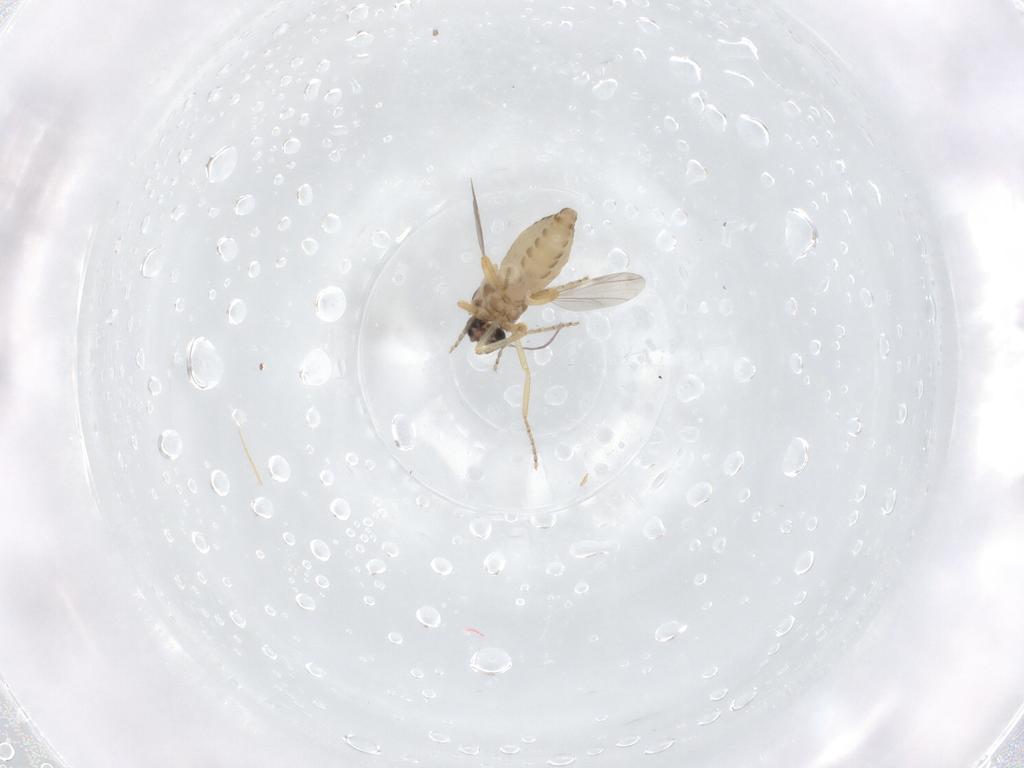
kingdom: Animalia
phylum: Arthropoda
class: Insecta
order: Diptera
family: Ceratopogonidae
